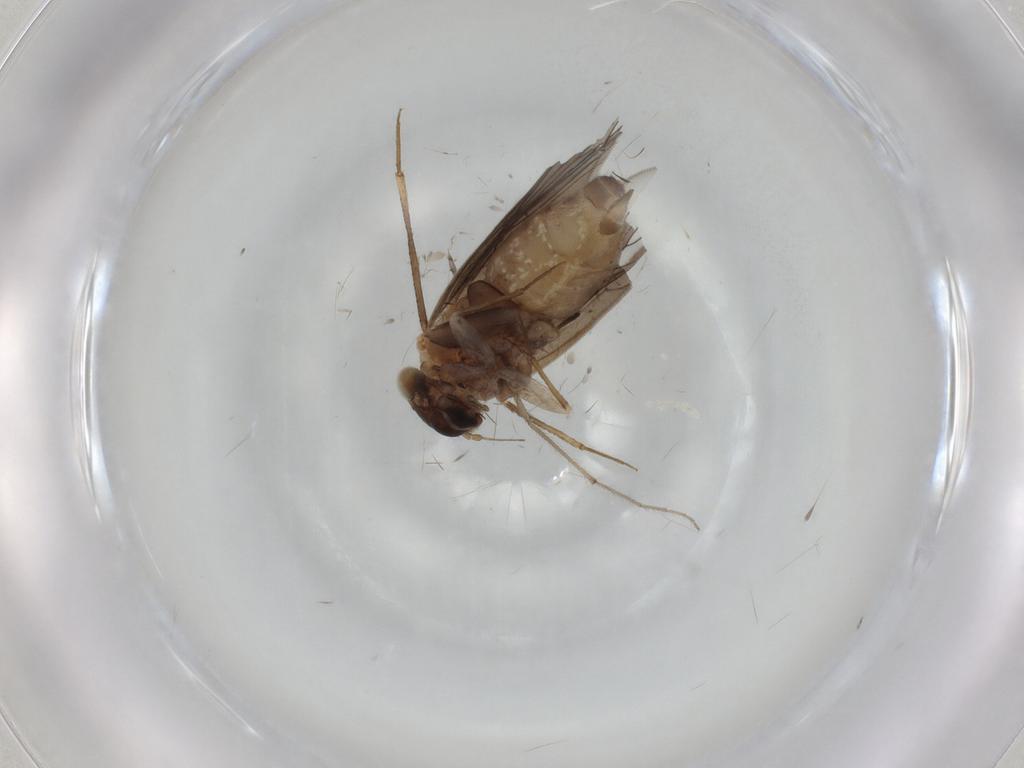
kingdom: Animalia
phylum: Arthropoda
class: Insecta
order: Psocodea
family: Lepidopsocidae
